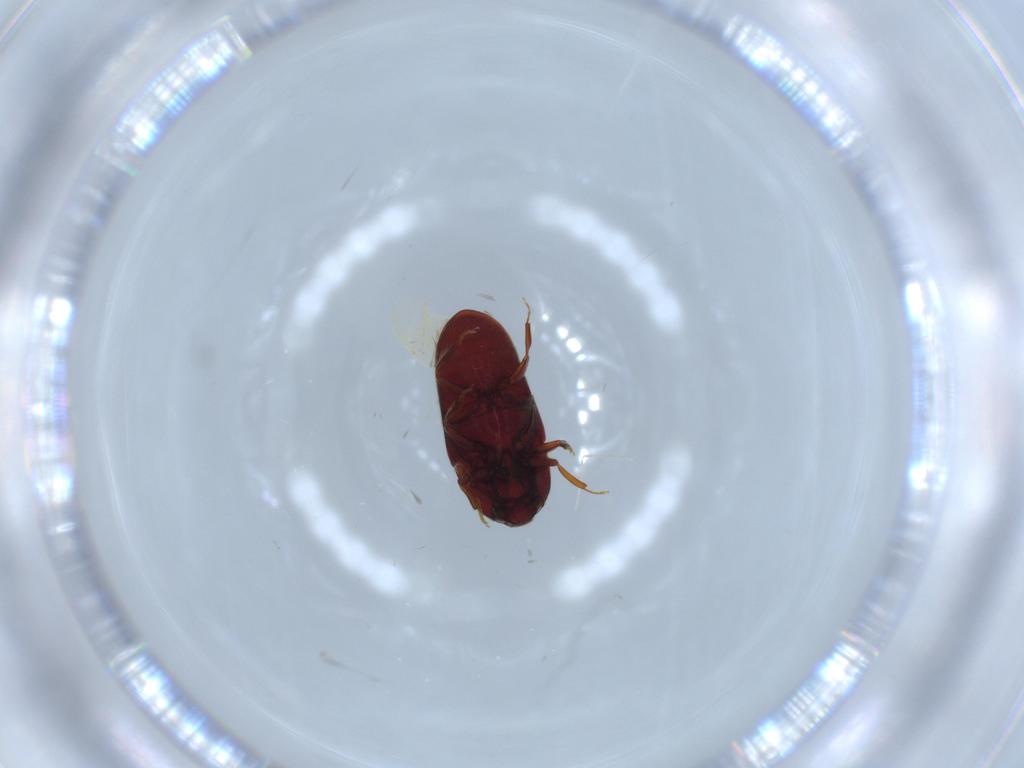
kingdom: Animalia
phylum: Arthropoda
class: Insecta
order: Coleoptera
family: Throscidae
